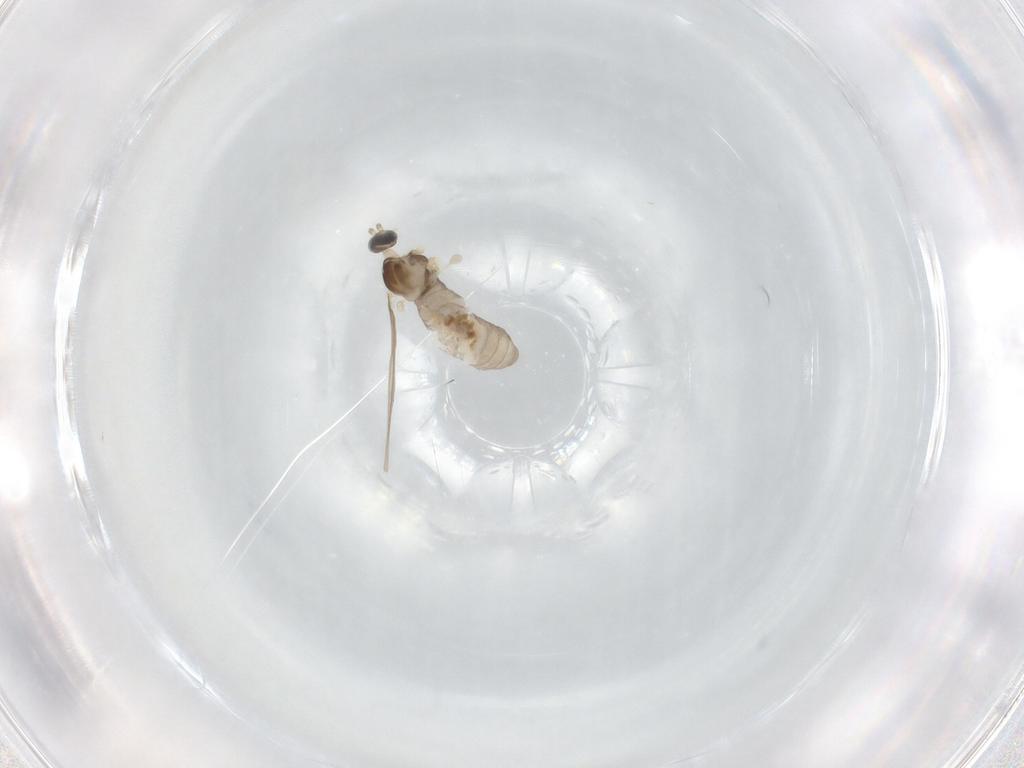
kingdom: Animalia
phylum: Arthropoda
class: Insecta
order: Diptera
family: Cecidomyiidae
